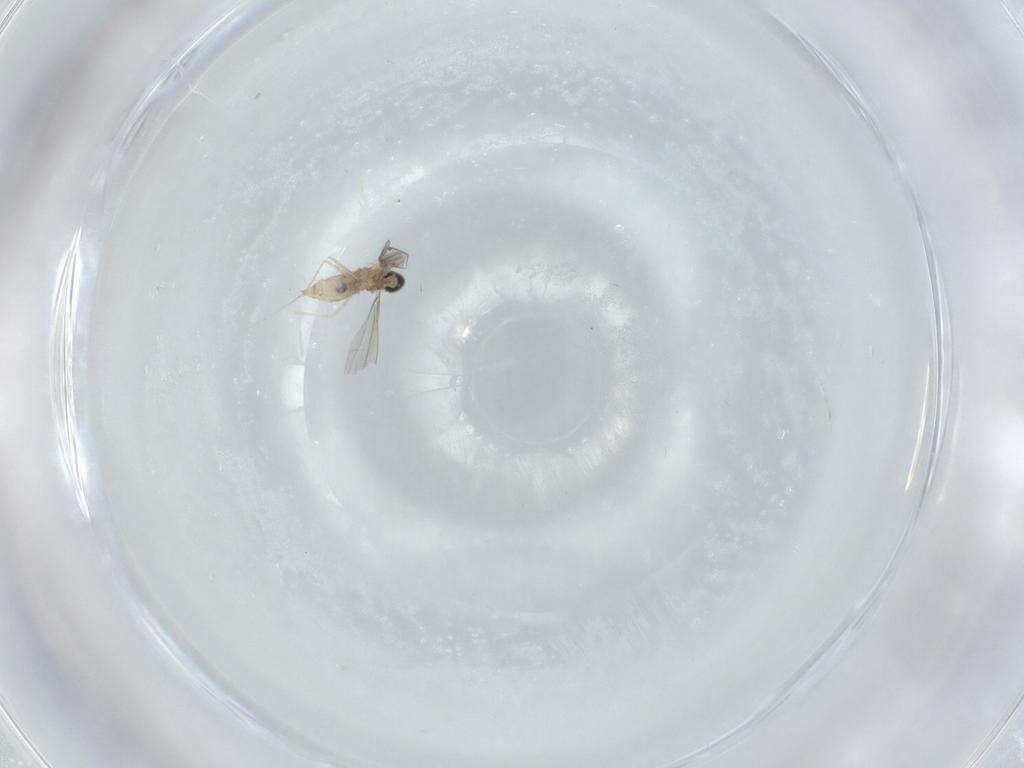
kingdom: Animalia
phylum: Arthropoda
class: Insecta
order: Diptera
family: Cecidomyiidae
